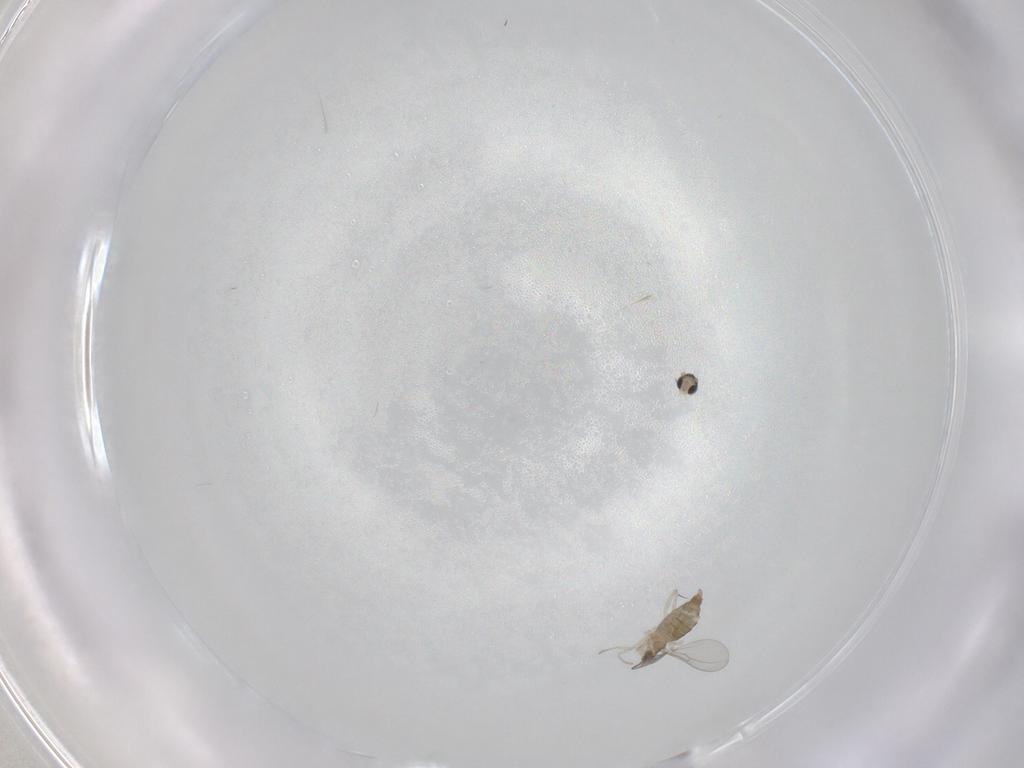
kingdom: Animalia
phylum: Arthropoda
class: Insecta
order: Diptera
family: Cecidomyiidae
